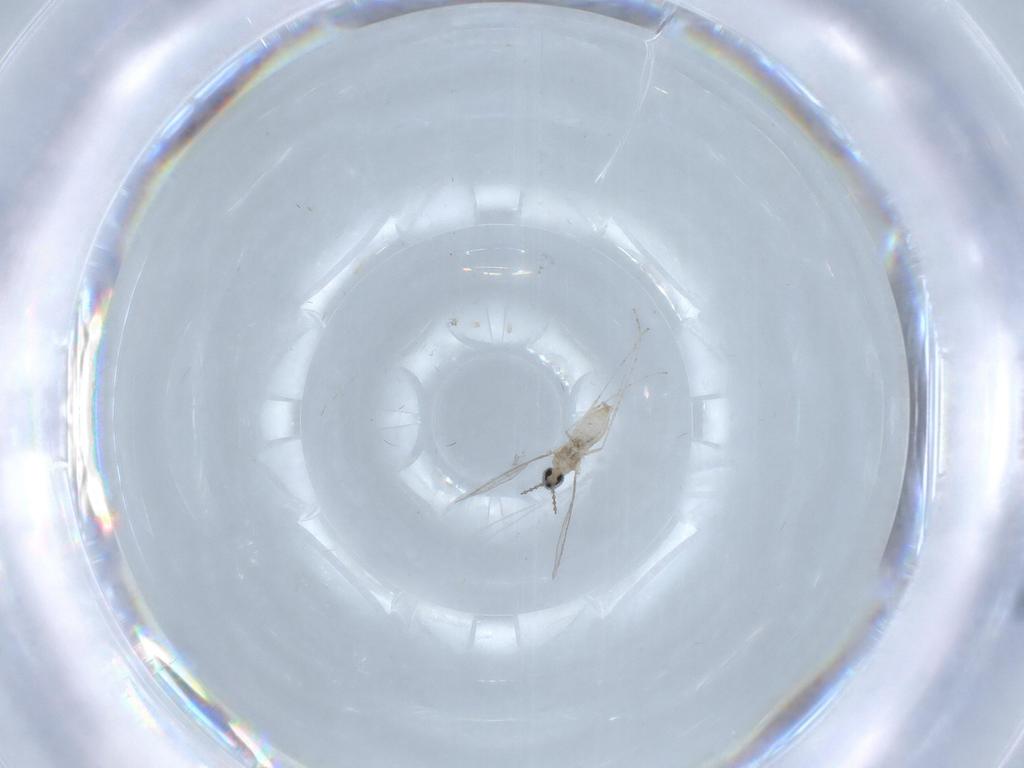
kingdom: Animalia
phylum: Arthropoda
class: Insecta
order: Diptera
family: Cecidomyiidae
